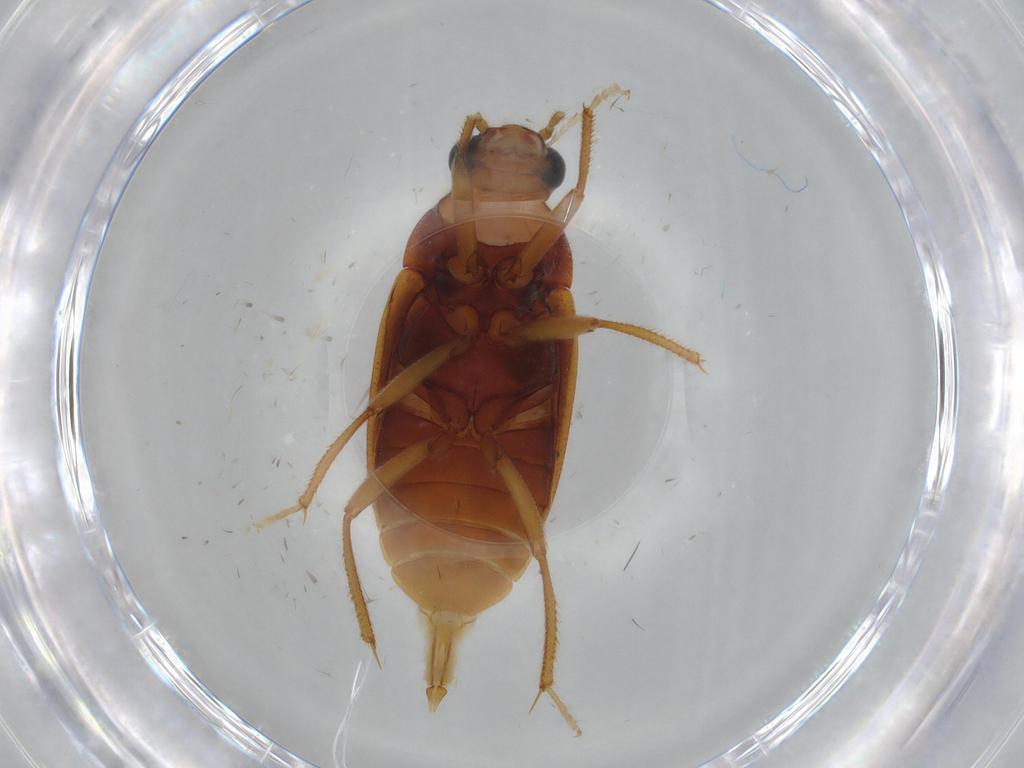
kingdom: Animalia
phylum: Arthropoda
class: Insecta
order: Coleoptera
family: Ptilodactylidae
